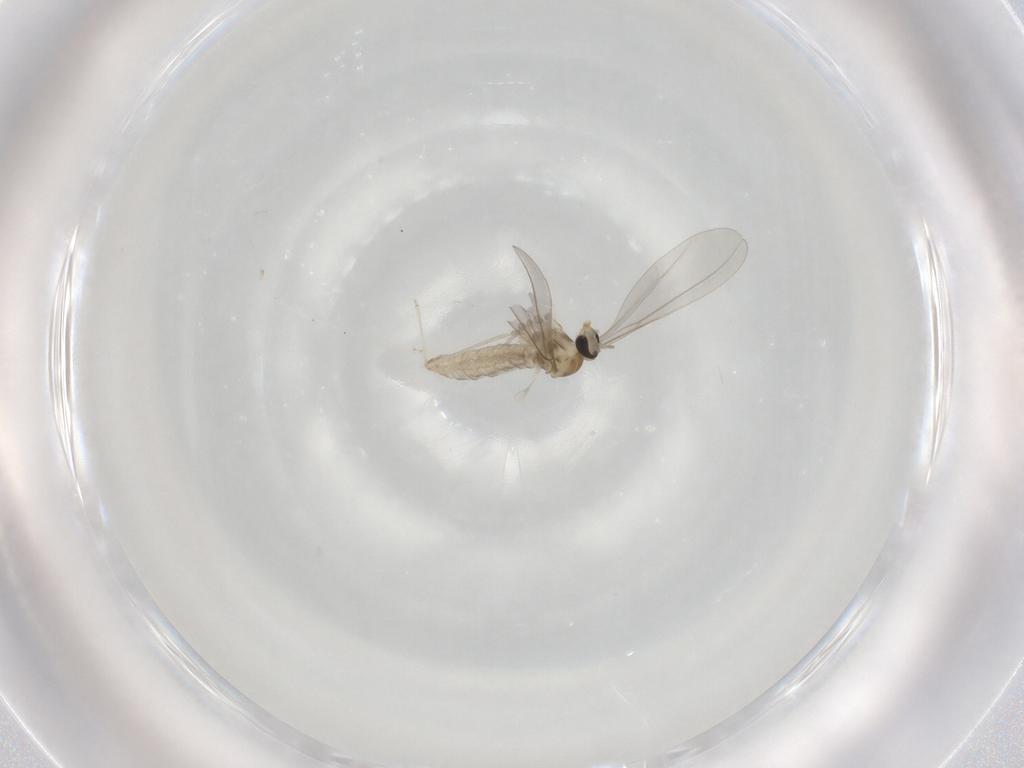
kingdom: Animalia
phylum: Arthropoda
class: Insecta
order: Diptera
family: Cecidomyiidae
